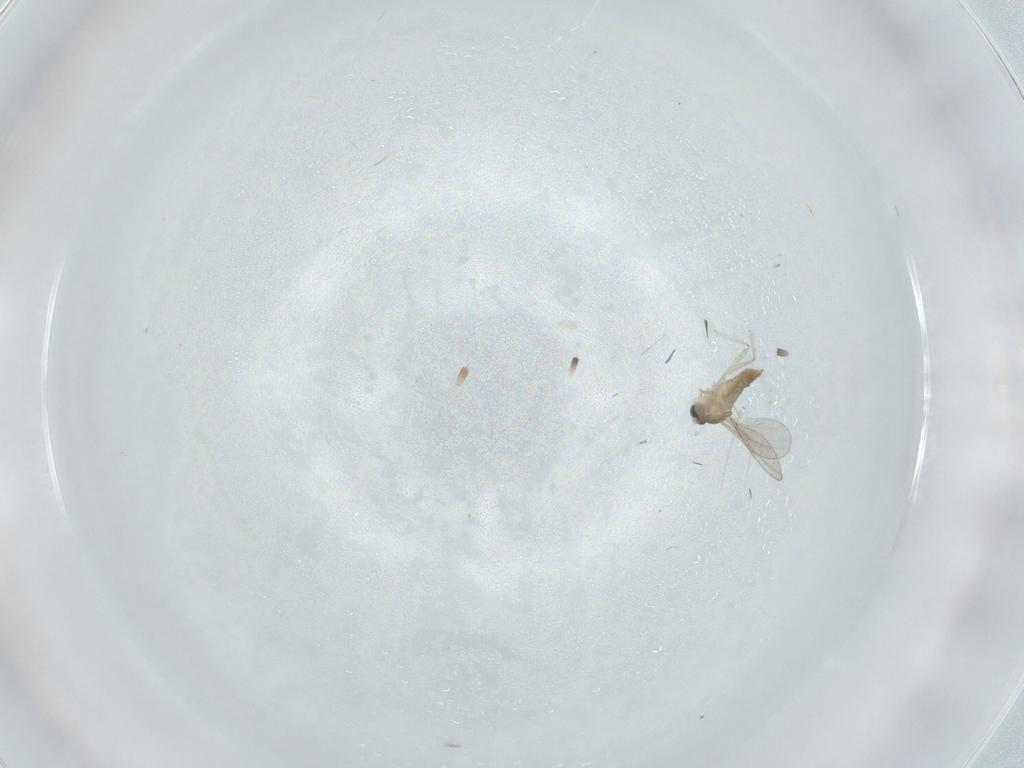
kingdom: Animalia
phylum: Arthropoda
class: Insecta
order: Diptera
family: Cecidomyiidae
